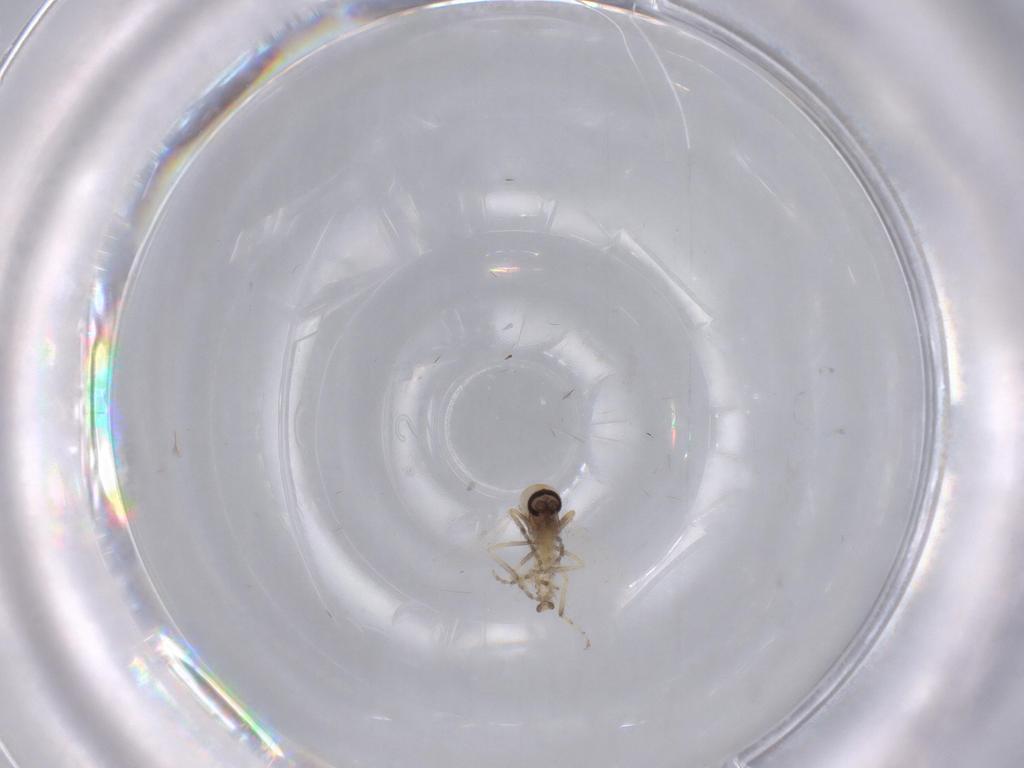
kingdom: Animalia
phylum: Arthropoda
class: Insecta
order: Diptera
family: Ceratopogonidae
